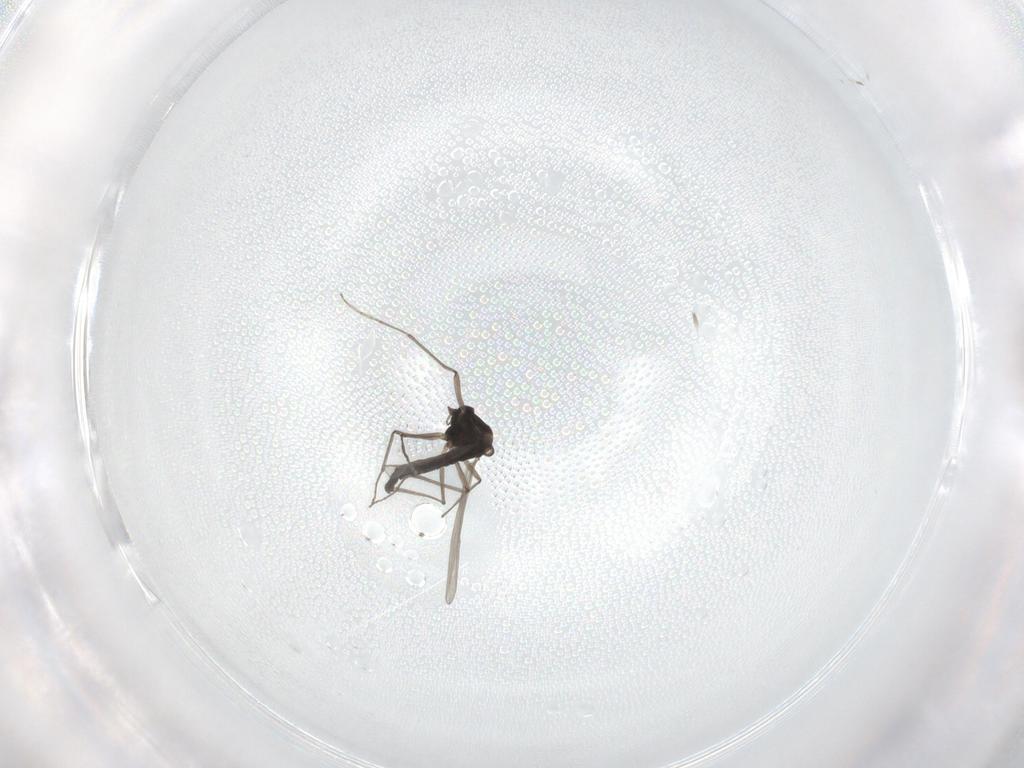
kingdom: Animalia
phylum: Arthropoda
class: Insecta
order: Diptera
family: Chironomidae
